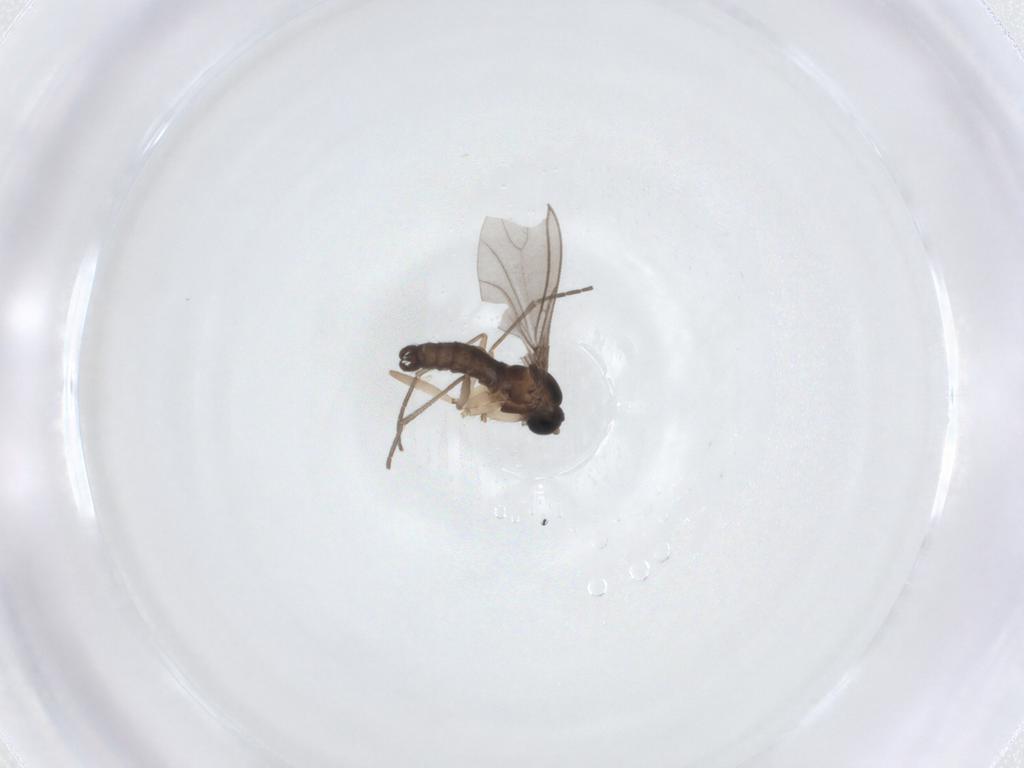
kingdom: Animalia
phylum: Arthropoda
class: Insecta
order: Diptera
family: Sciaridae
